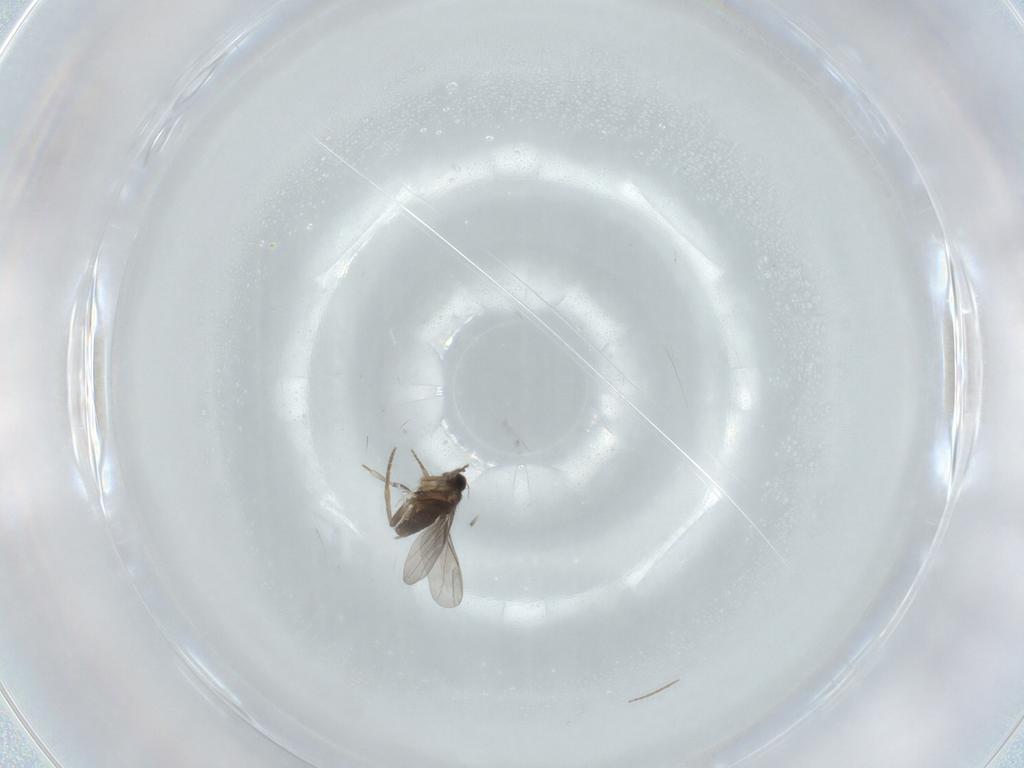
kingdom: Animalia
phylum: Arthropoda
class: Insecta
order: Diptera
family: Cecidomyiidae
